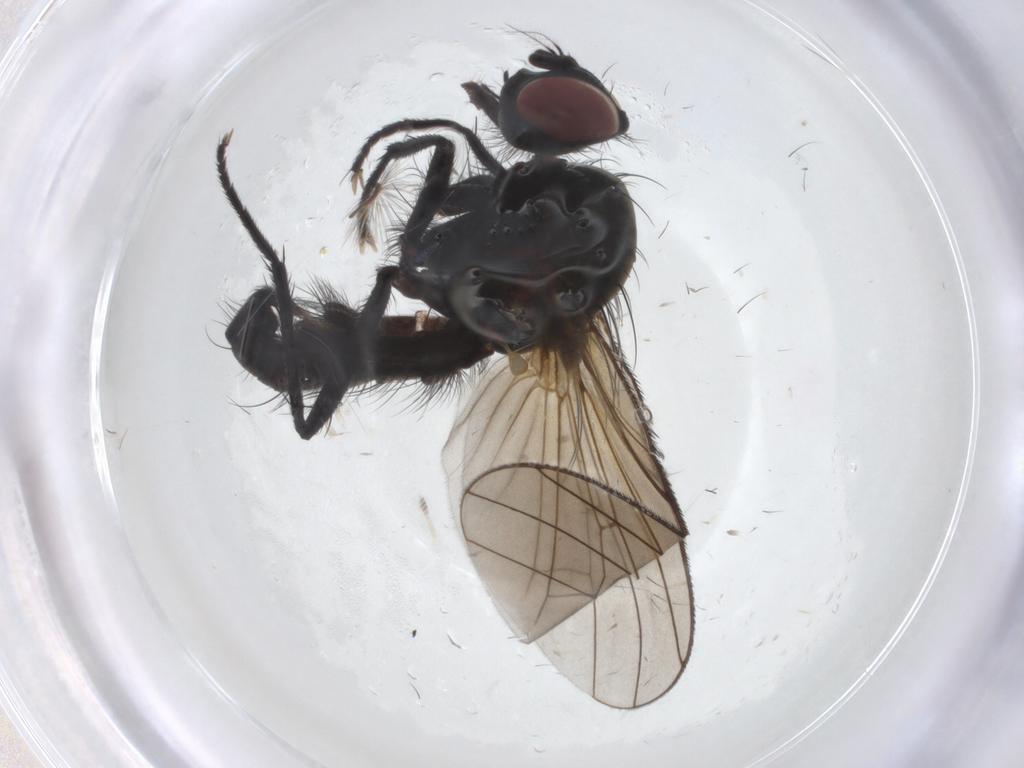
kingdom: Animalia
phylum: Arthropoda
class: Insecta
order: Diptera
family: Anthomyiidae
